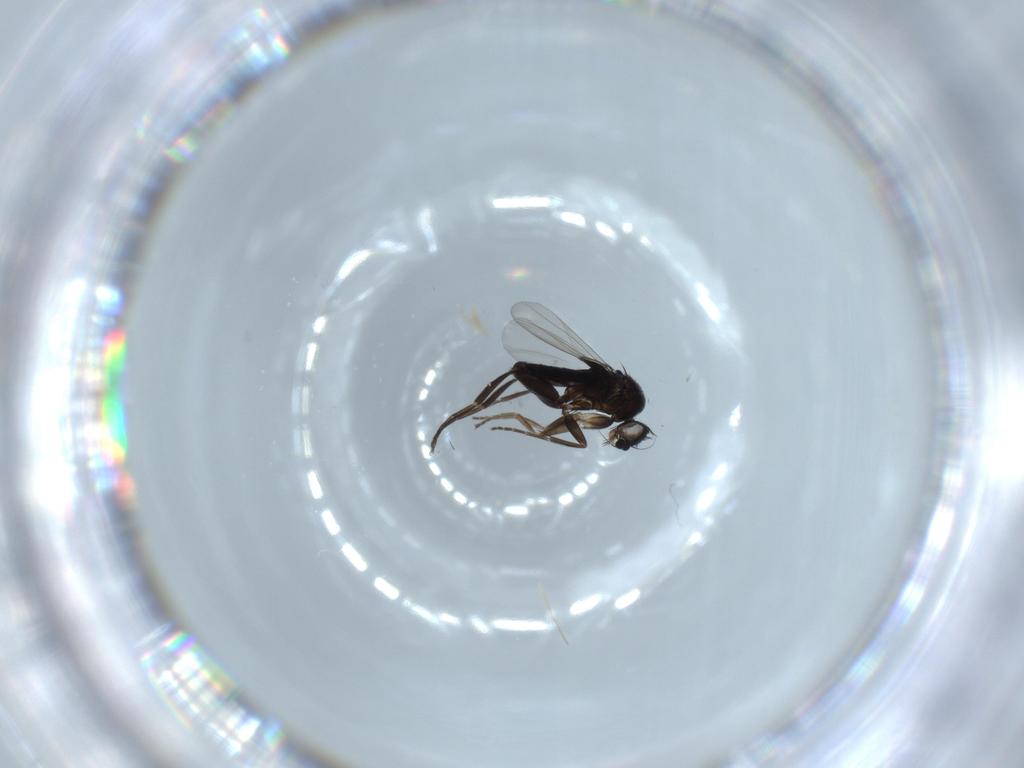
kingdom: Animalia
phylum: Arthropoda
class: Insecta
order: Diptera
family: Phoridae
